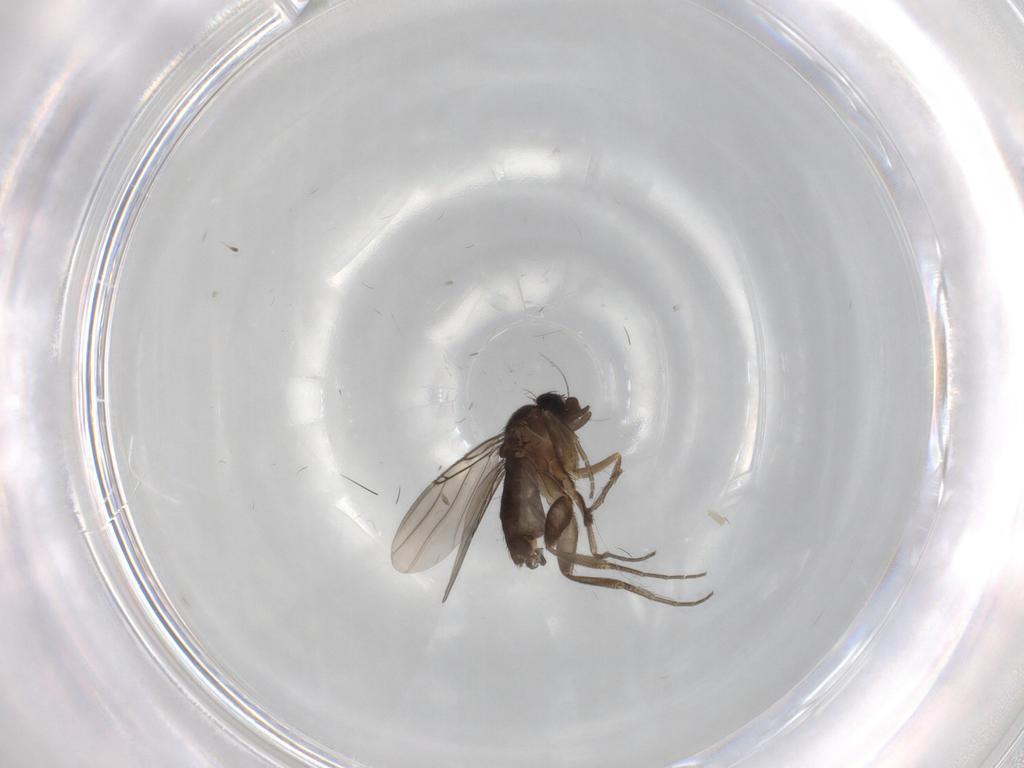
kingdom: Animalia
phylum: Arthropoda
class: Insecta
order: Diptera
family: Phoridae
